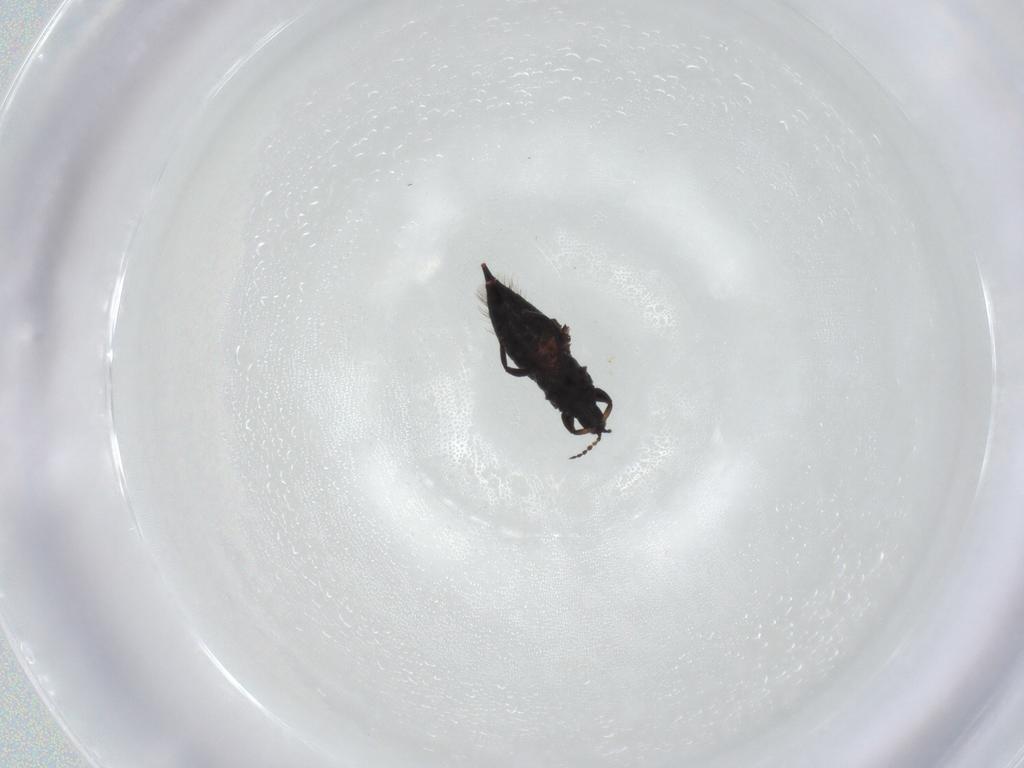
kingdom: Animalia
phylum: Arthropoda
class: Insecta
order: Thysanoptera
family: Phlaeothripidae
